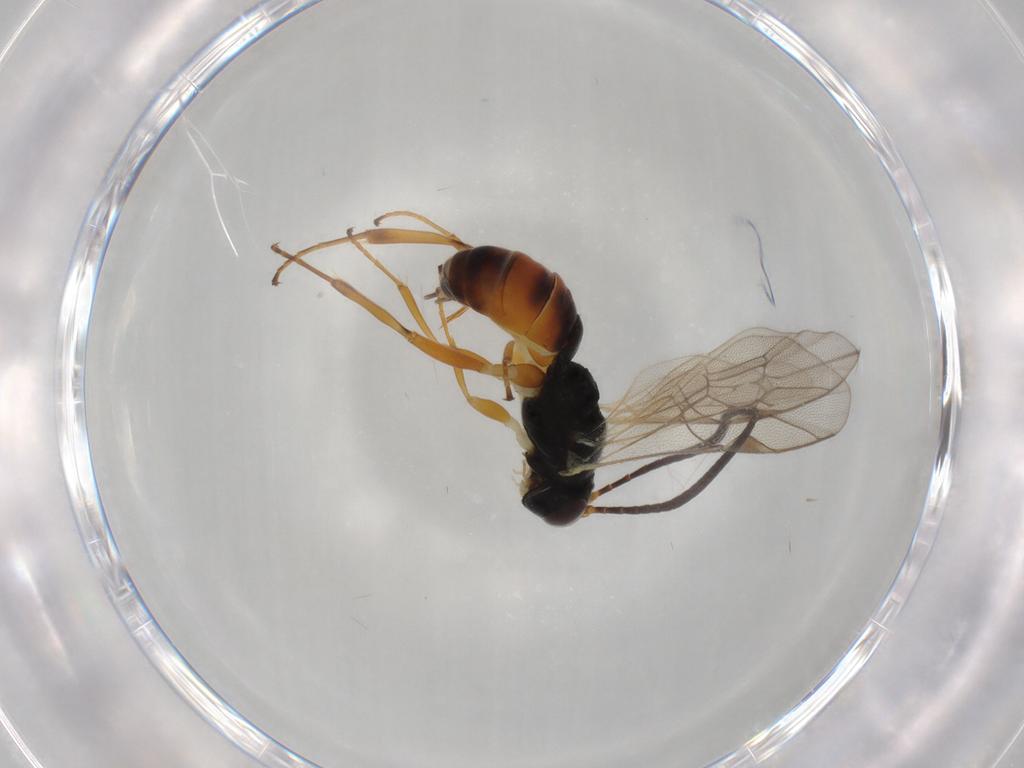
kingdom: Animalia
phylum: Arthropoda
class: Insecta
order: Hymenoptera
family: Ichneumonidae
